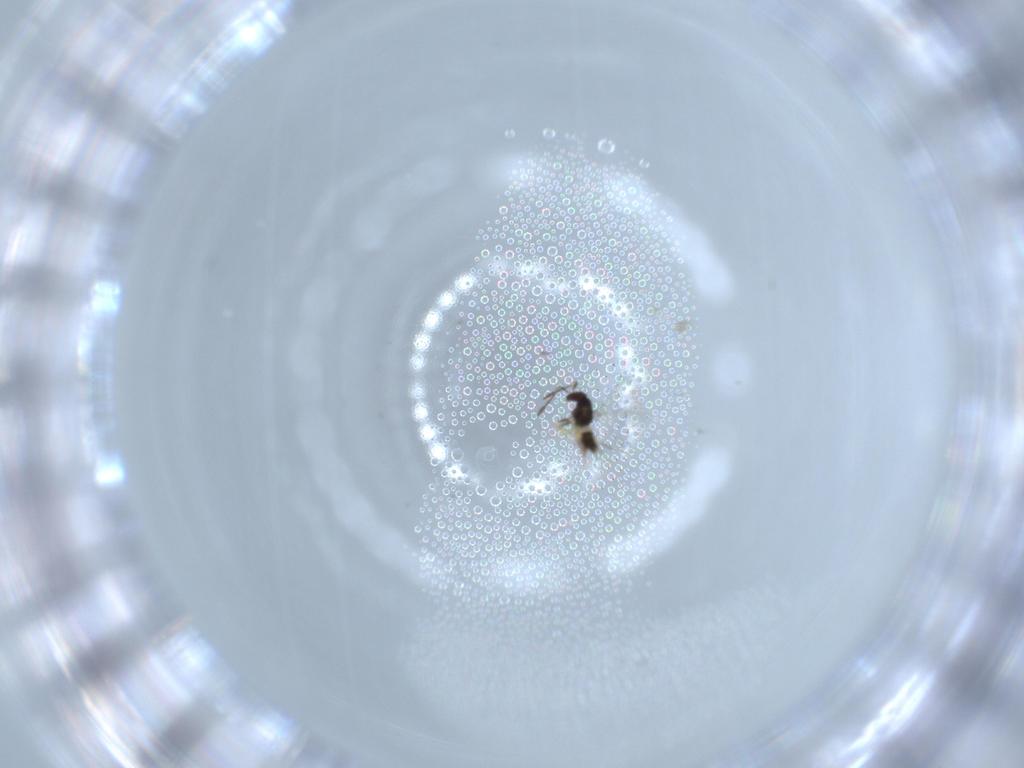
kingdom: Animalia
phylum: Arthropoda
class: Insecta
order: Hymenoptera
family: Mymaridae
